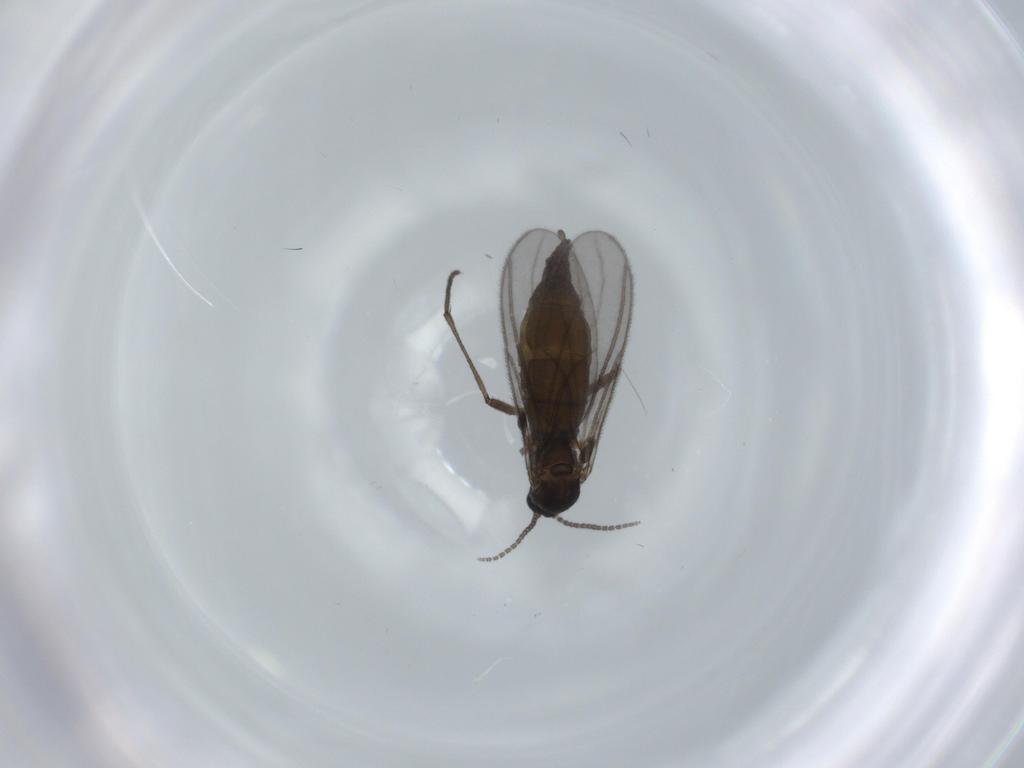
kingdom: Animalia
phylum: Arthropoda
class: Insecta
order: Diptera
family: Sciaridae
